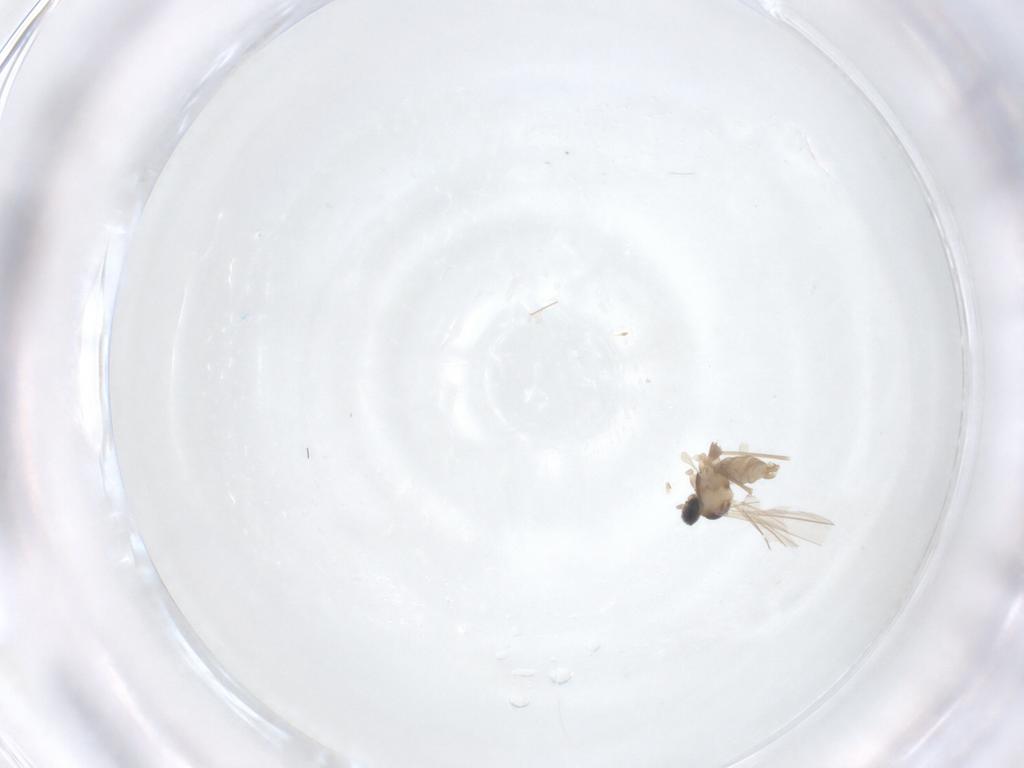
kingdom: Animalia
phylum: Arthropoda
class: Insecta
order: Diptera
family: Cecidomyiidae
